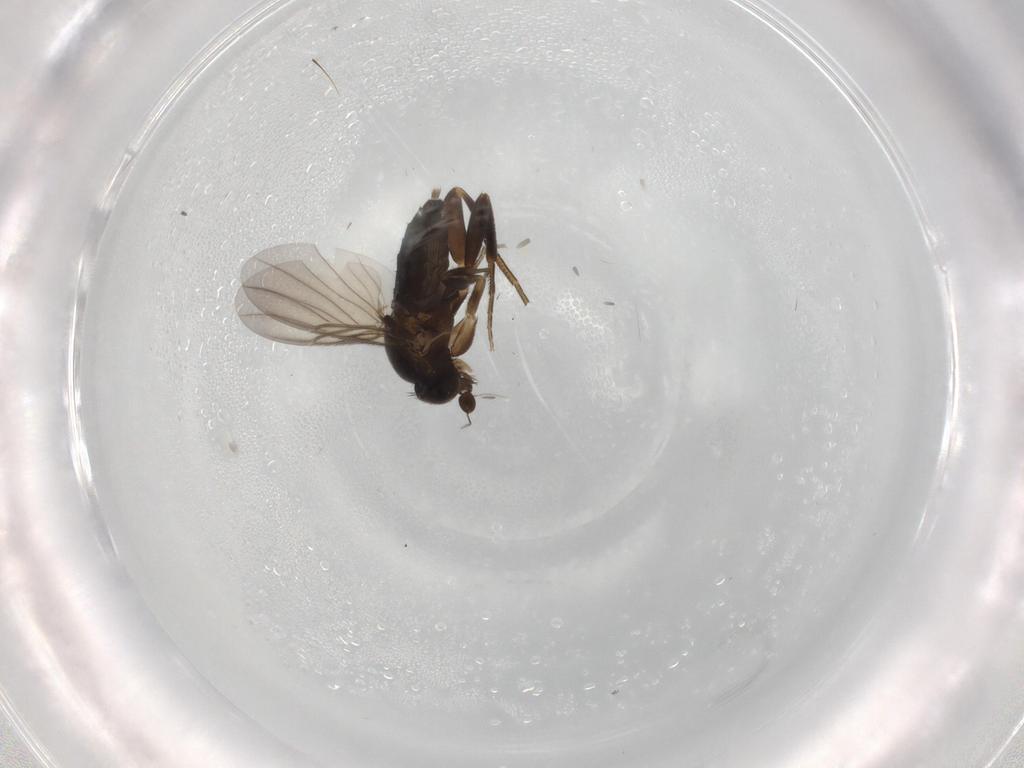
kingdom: Animalia
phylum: Arthropoda
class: Insecta
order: Diptera
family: Phoridae
